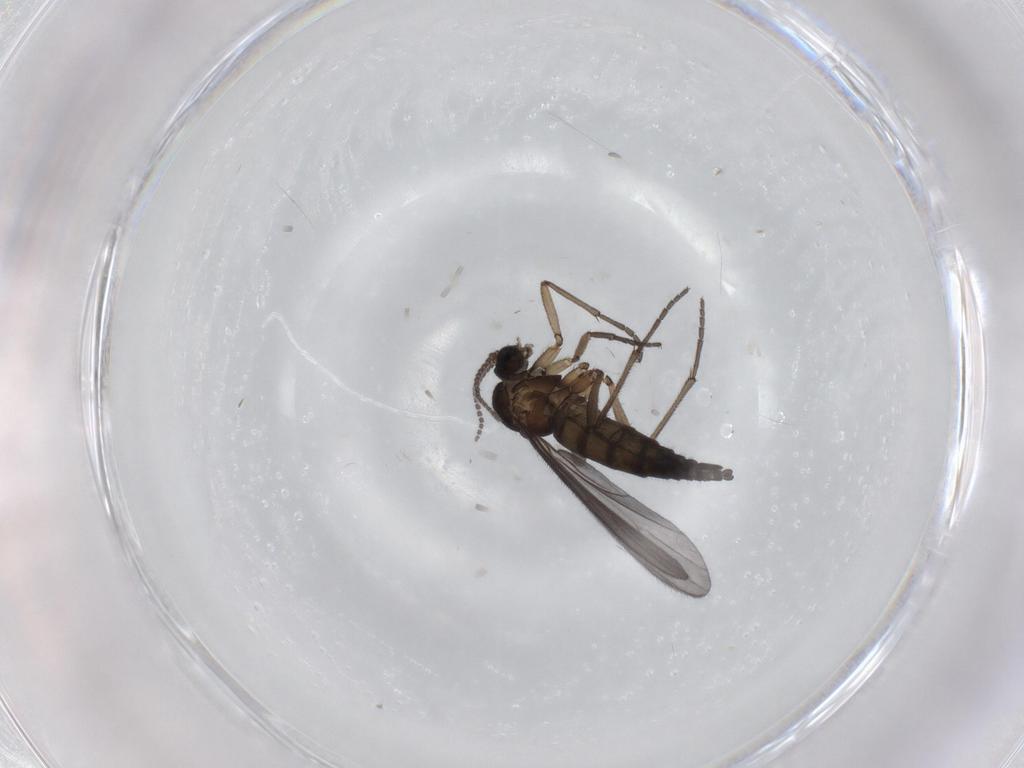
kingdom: Animalia
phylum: Arthropoda
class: Insecta
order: Diptera
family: Sciaridae
